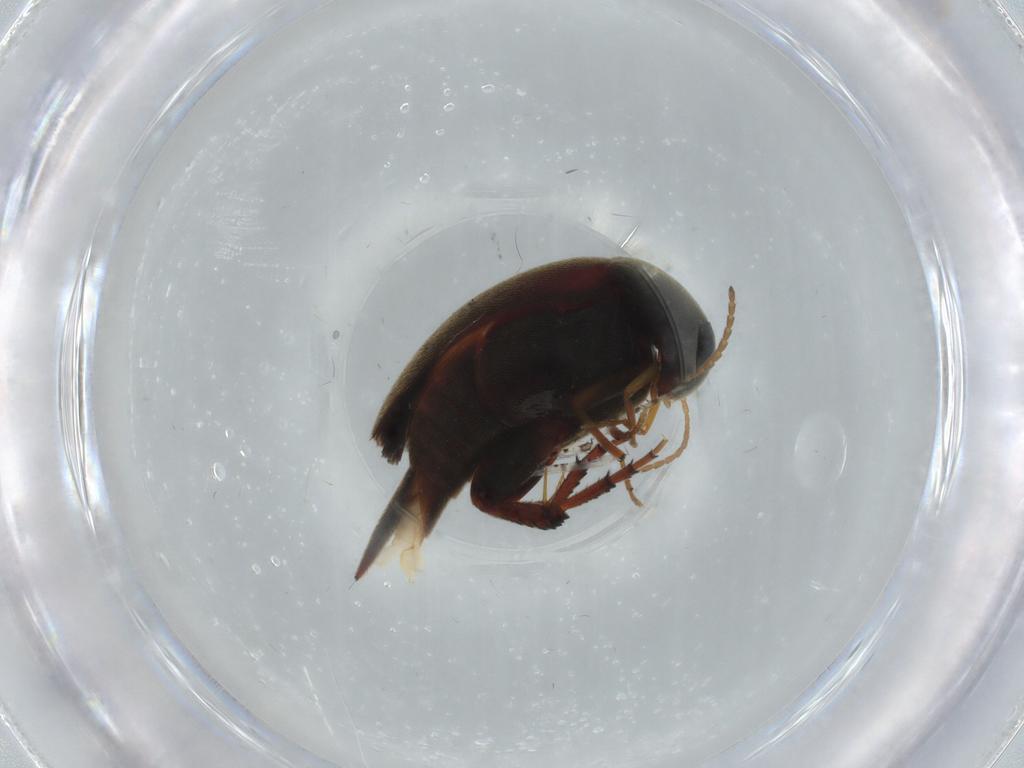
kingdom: Animalia
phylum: Arthropoda
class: Insecta
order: Coleoptera
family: Mordellidae
